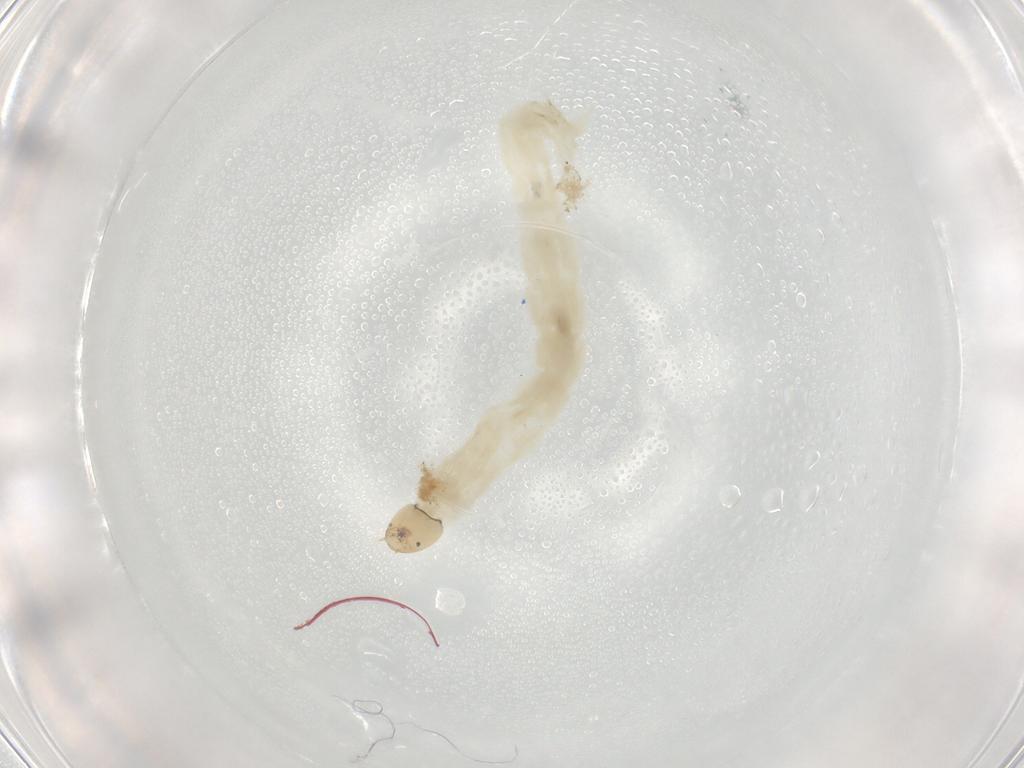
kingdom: Animalia
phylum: Arthropoda
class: Insecta
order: Diptera
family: Chironomidae
